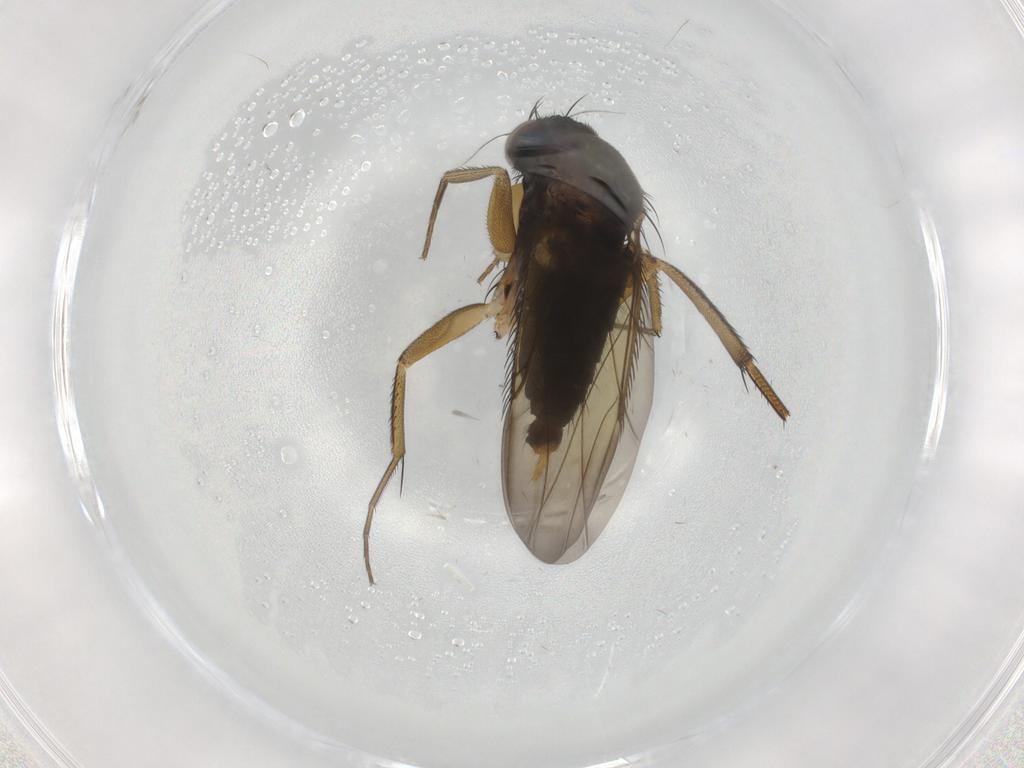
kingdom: Animalia
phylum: Arthropoda
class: Insecta
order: Diptera
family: Phoridae
